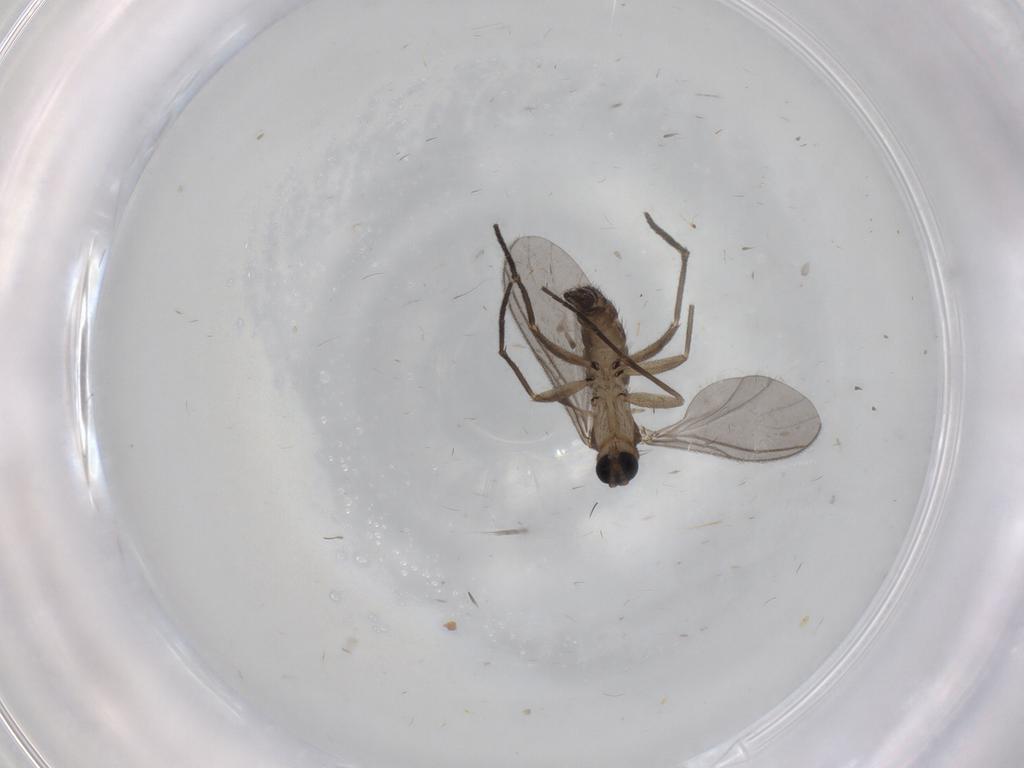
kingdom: Animalia
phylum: Arthropoda
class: Insecta
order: Diptera
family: Sciaridae
